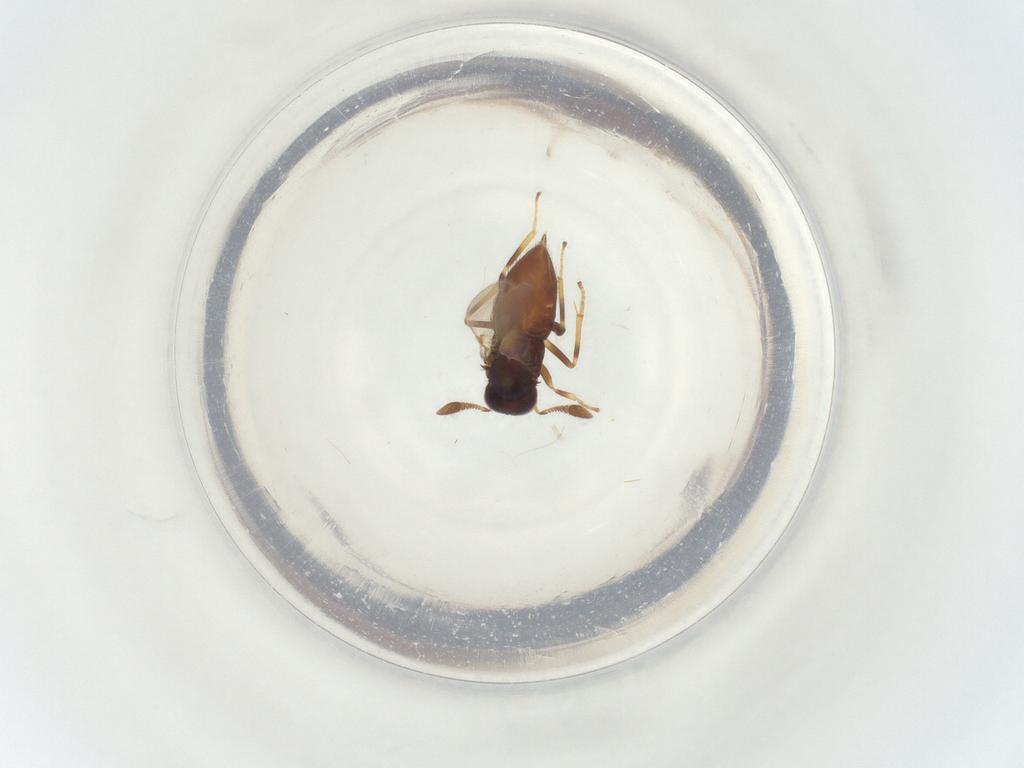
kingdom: Animalia
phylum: Arthropoda
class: Insecta
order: Hymenoptera
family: Encyrtidae
